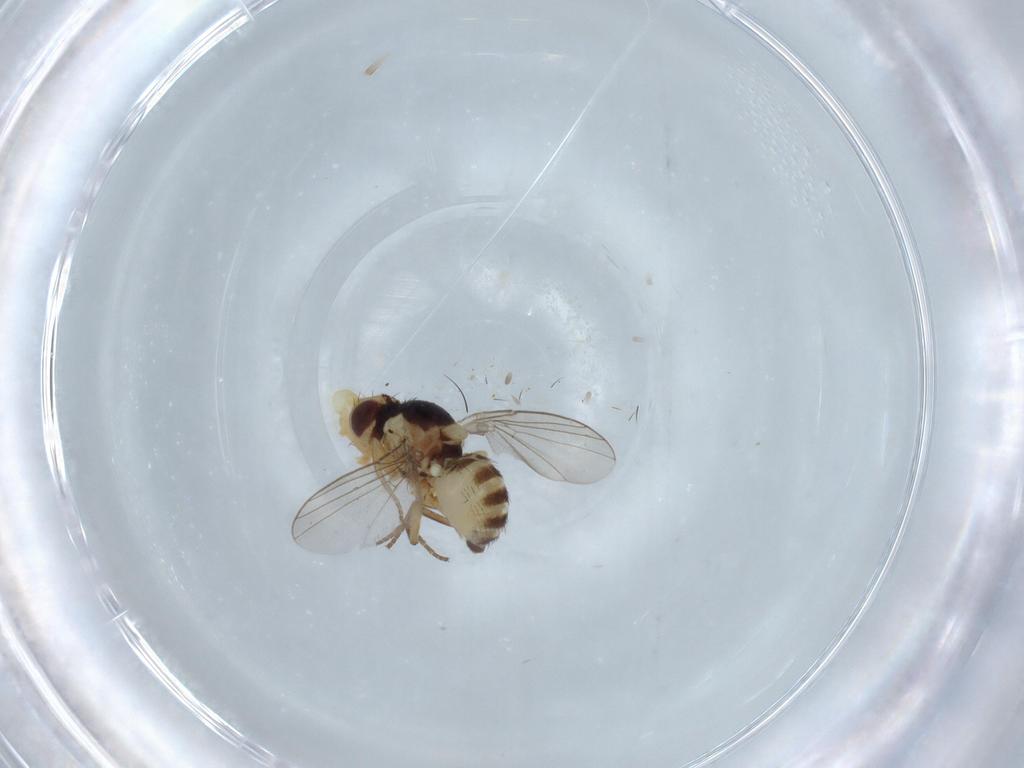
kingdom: Animalia
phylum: Arthropoda
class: Insecta
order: Diptera
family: Agromyzidae
